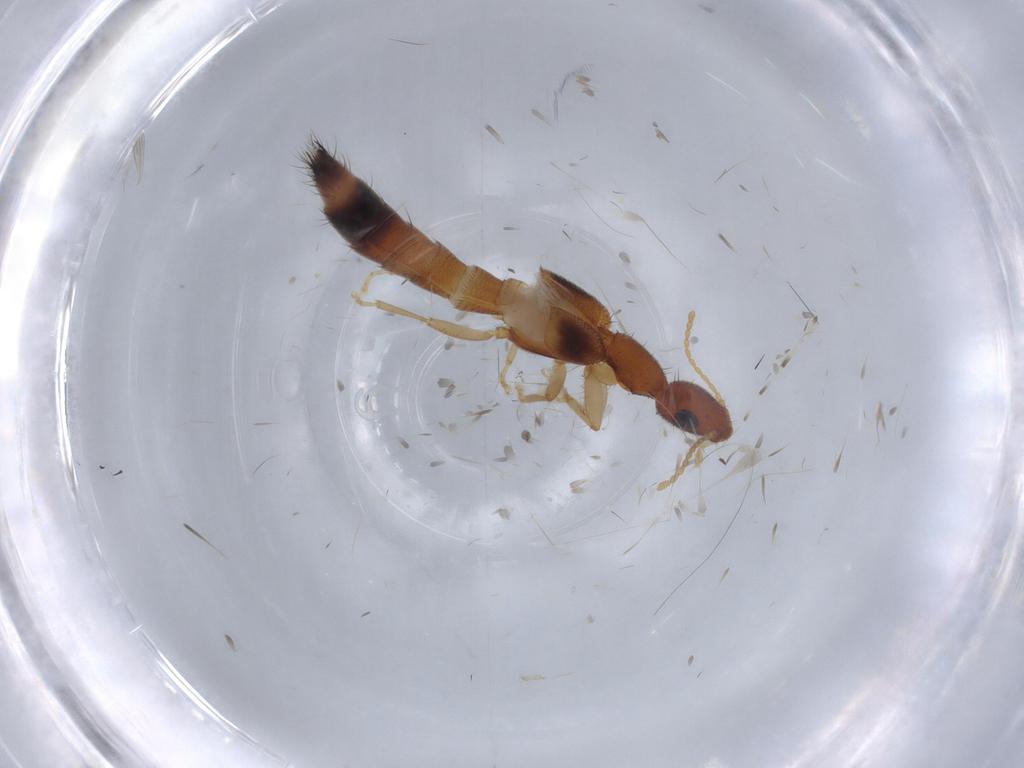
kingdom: Animalia
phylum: Arthropoda
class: Insecta
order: Coleoptera
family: Staphylinidae
